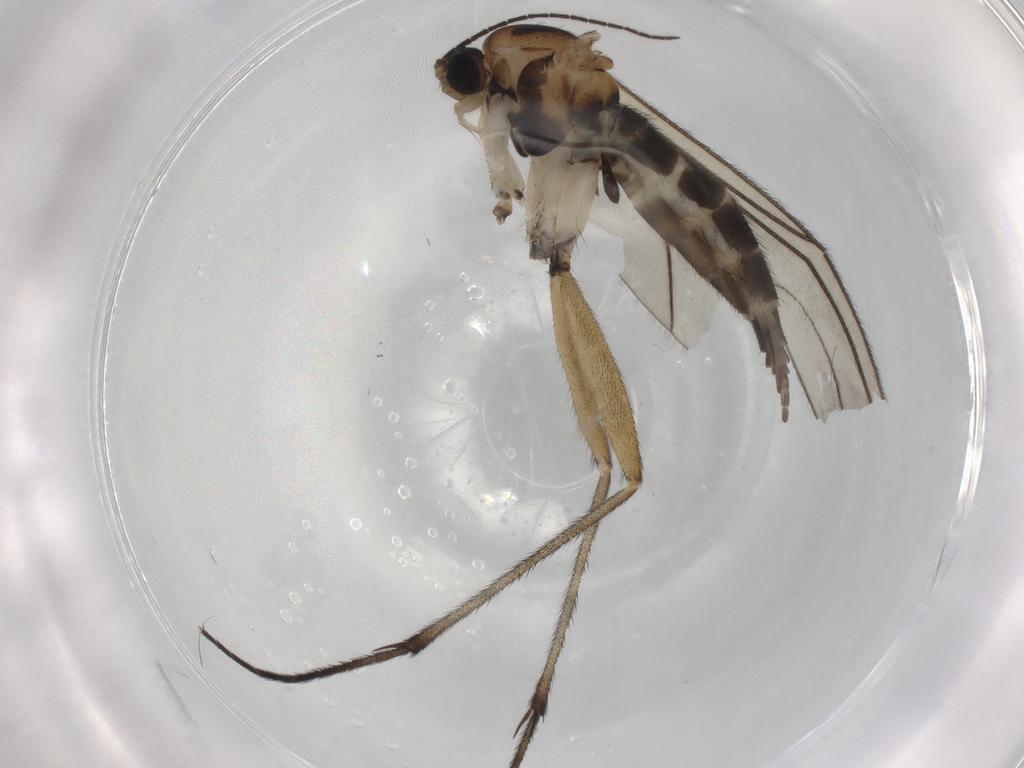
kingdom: Animalia
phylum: Arthropoda
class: Insecta
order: Diptera
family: Sciaridae
